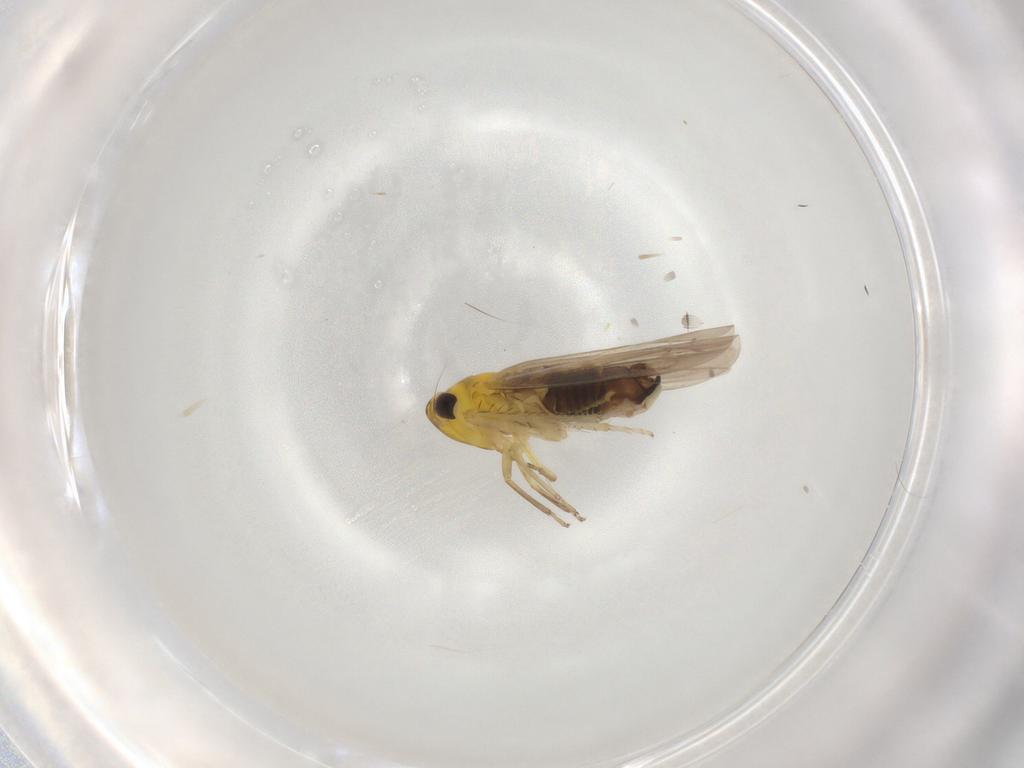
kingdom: Animalia
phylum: Arthropoda
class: Insecta
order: Hemiptera
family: Cicadellidae
